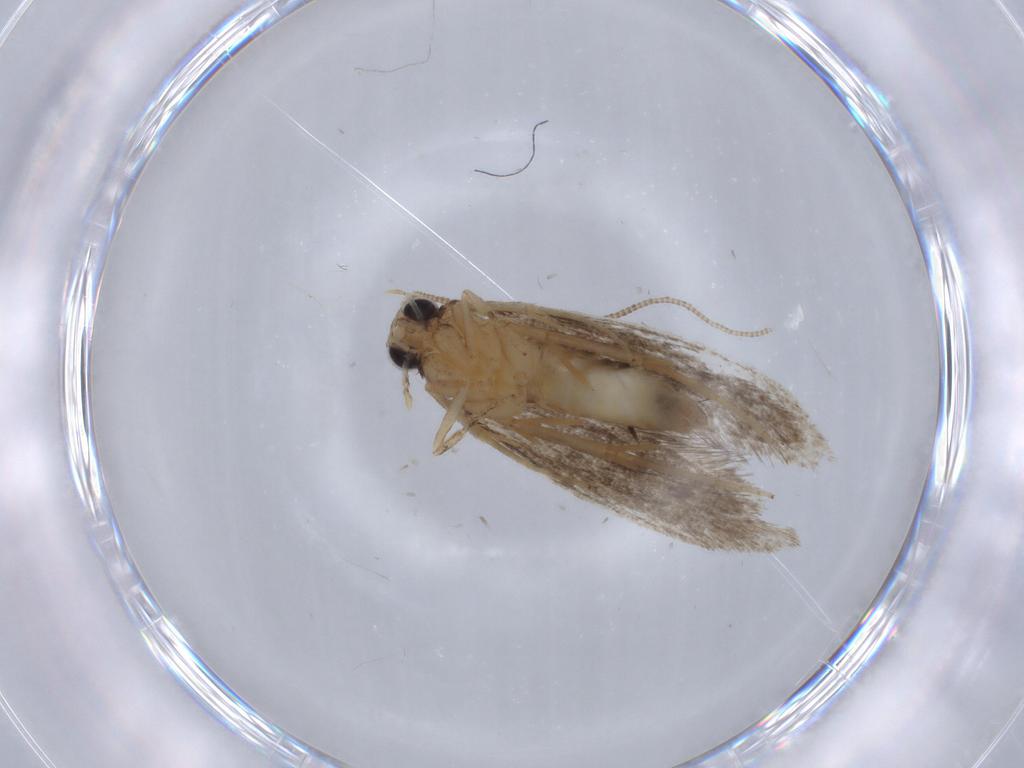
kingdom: Animalia
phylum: Arthropoda
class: Insecta
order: Lepidoptera
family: Tineidae
